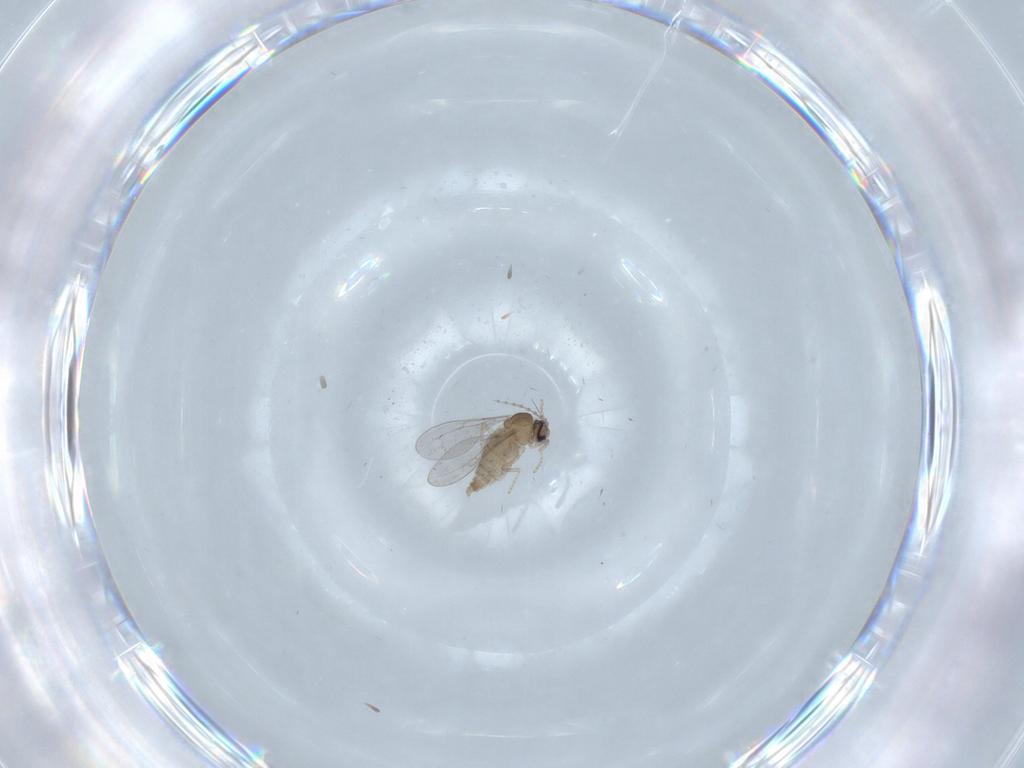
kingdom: Animalia
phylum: Arthropoda
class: Insecta
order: Diptera
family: Cecidomyiidae
